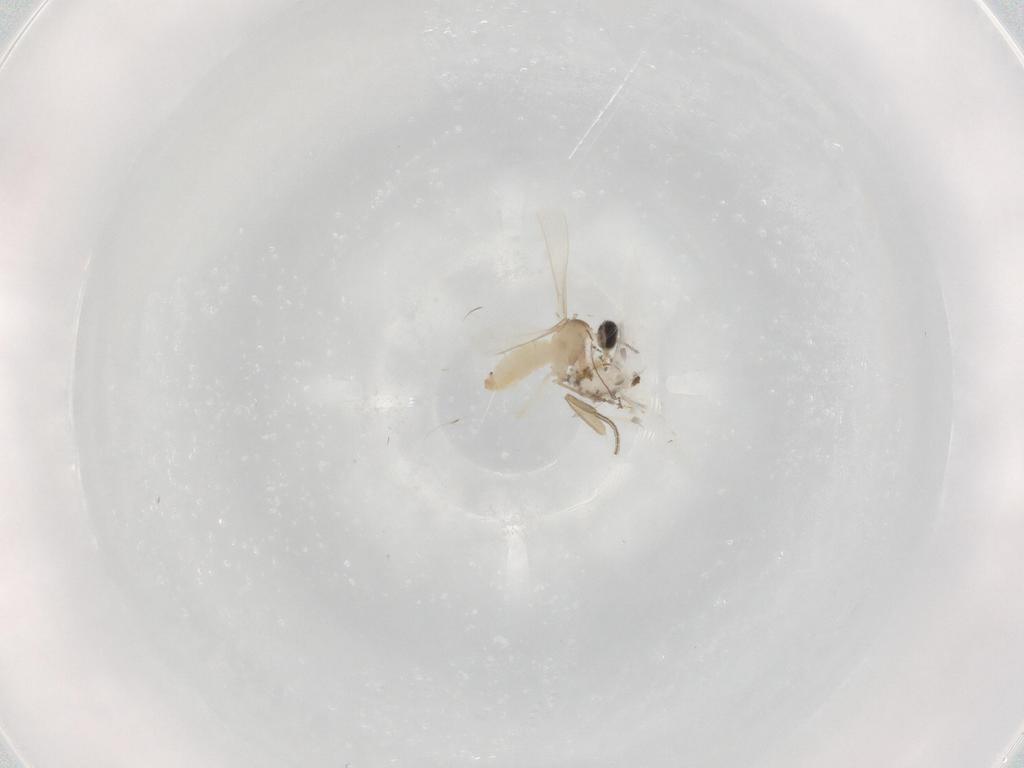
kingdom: Animalia
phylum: Arthropoda
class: Insecta
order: Diptera
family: Cecidomyiidae
